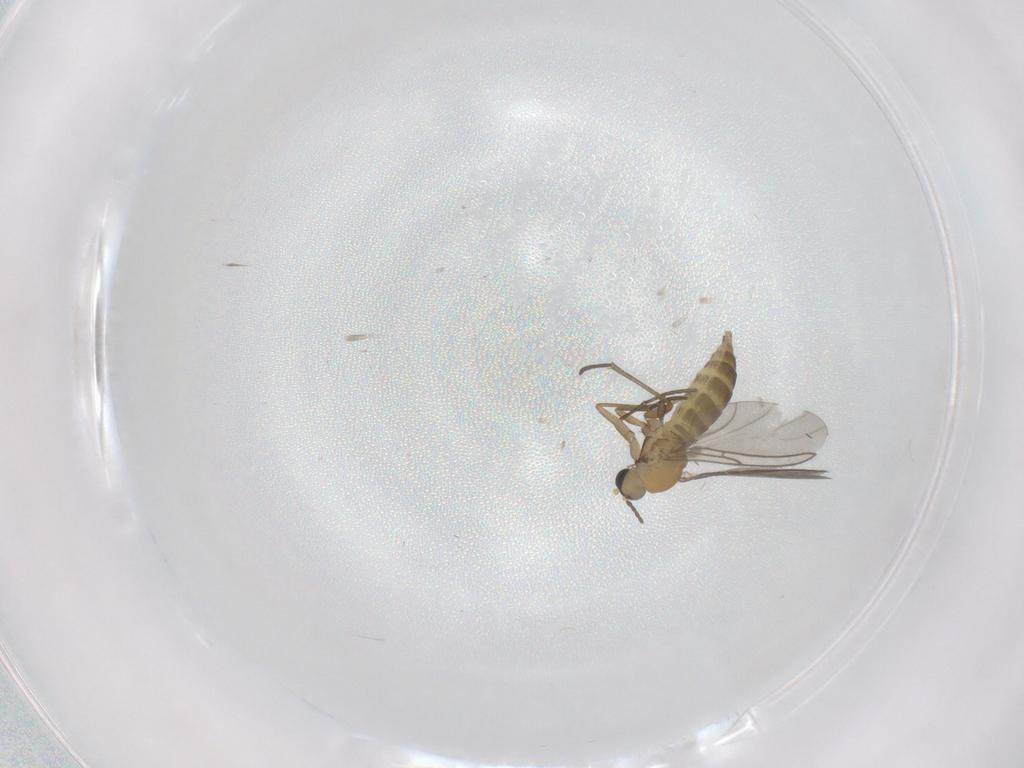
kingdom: Animalia
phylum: Arthropoda
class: Insecta
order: Diptera
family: Sciaridae
